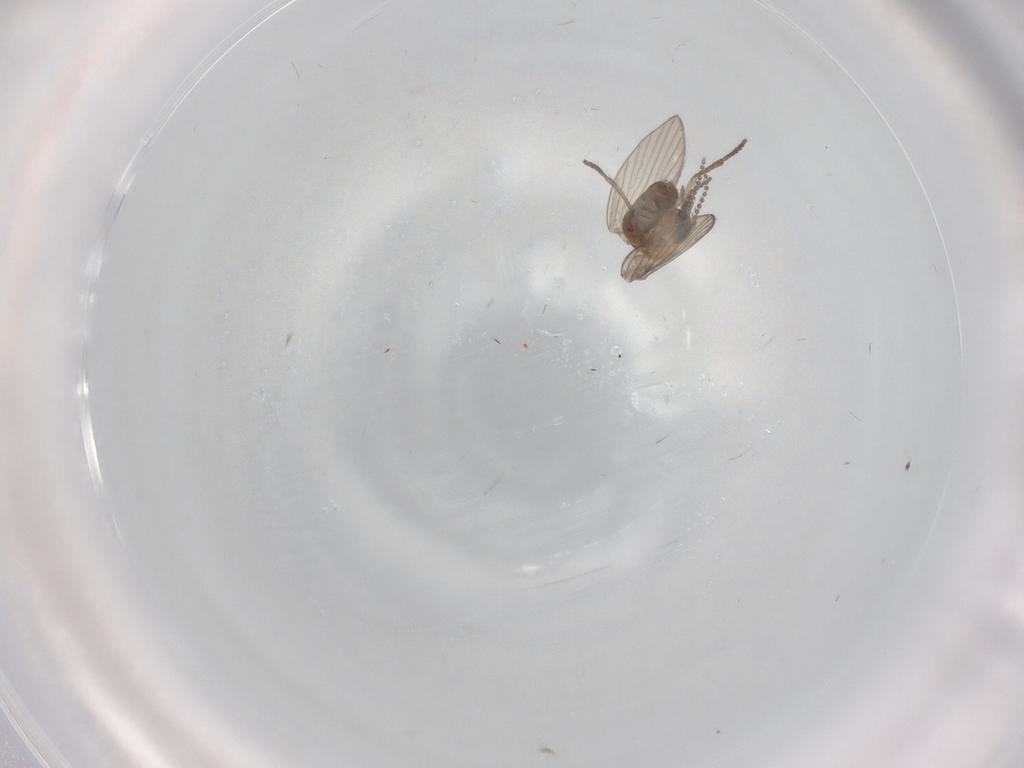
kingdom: Animalia
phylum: Arthropoda
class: Insecta
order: Diptera
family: Psychodidae
